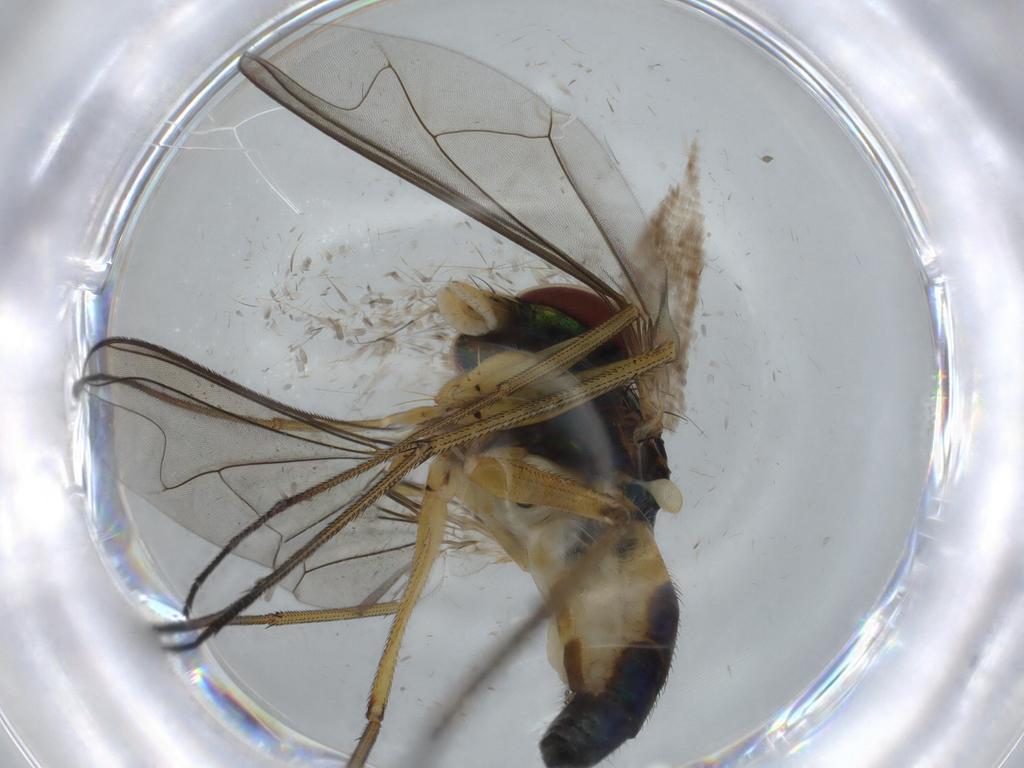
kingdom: Animalia
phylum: Arthropoda
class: Insecta
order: Diptera
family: Dolichopodidae
